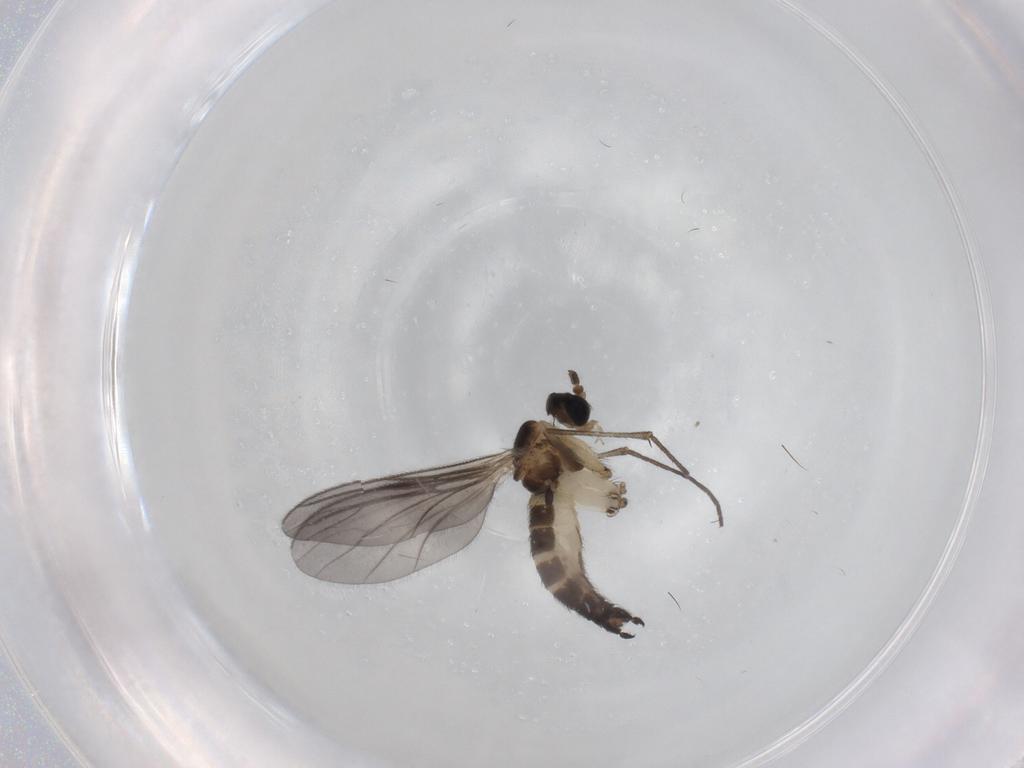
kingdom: Animalia
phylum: Arthropoda
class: Insecta
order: Diptera
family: Sciaridae
